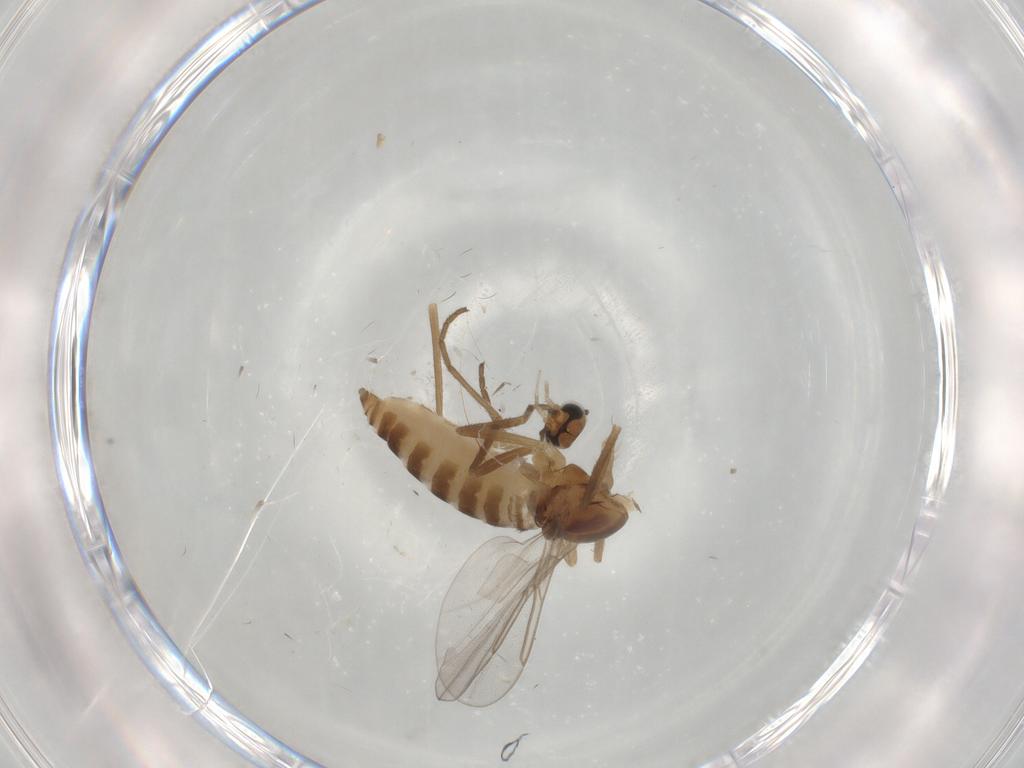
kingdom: Animalia
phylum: Arthropoda
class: Insecta
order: Diptera
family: Cecidomyiidae
